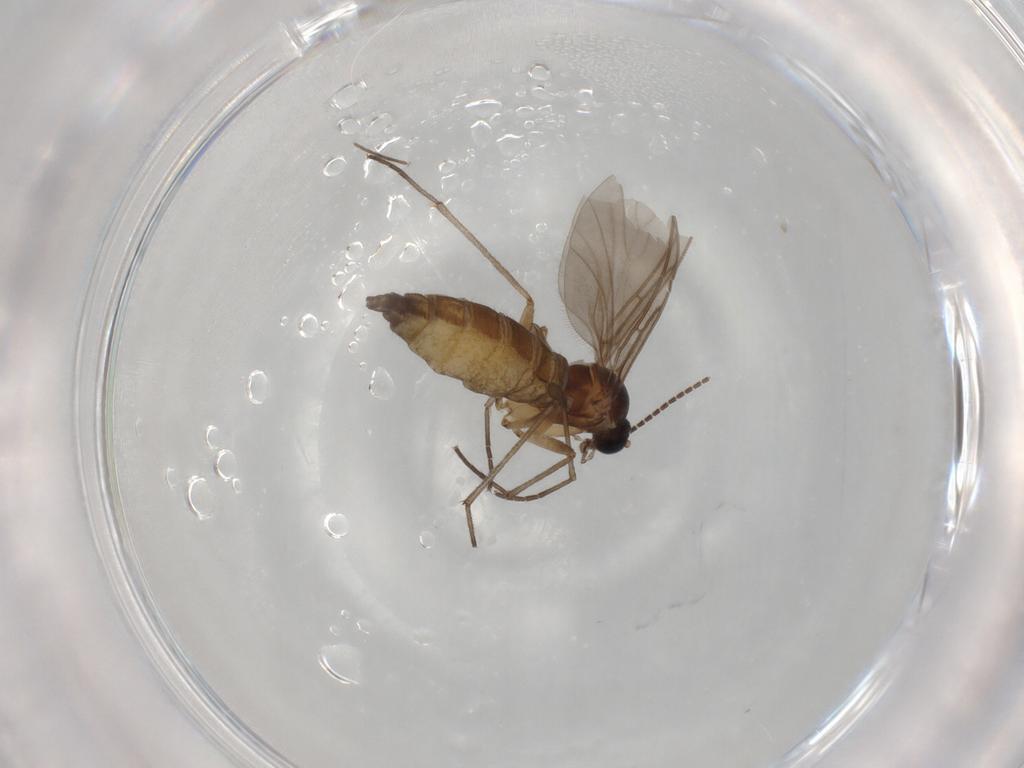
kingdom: Animalia
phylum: Arthropoda
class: Insecta
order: Diptera
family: Sciaridae
